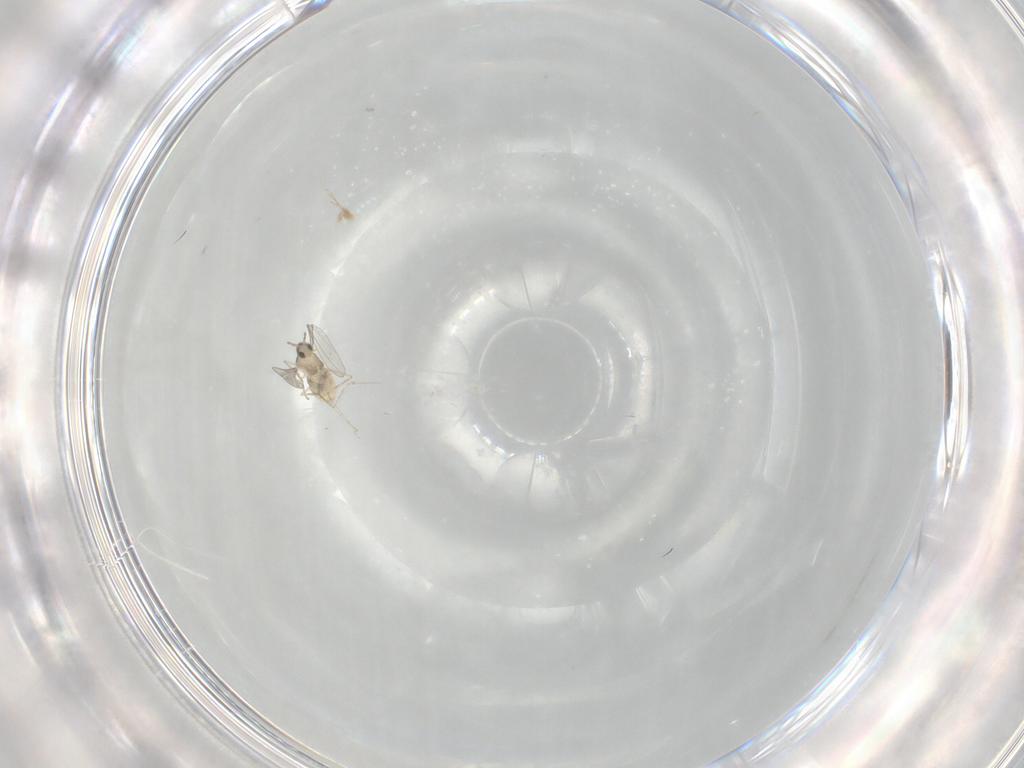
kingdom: Animalia
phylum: Arthropoda
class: Insecta
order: Diptera
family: Cecidomyiidae
